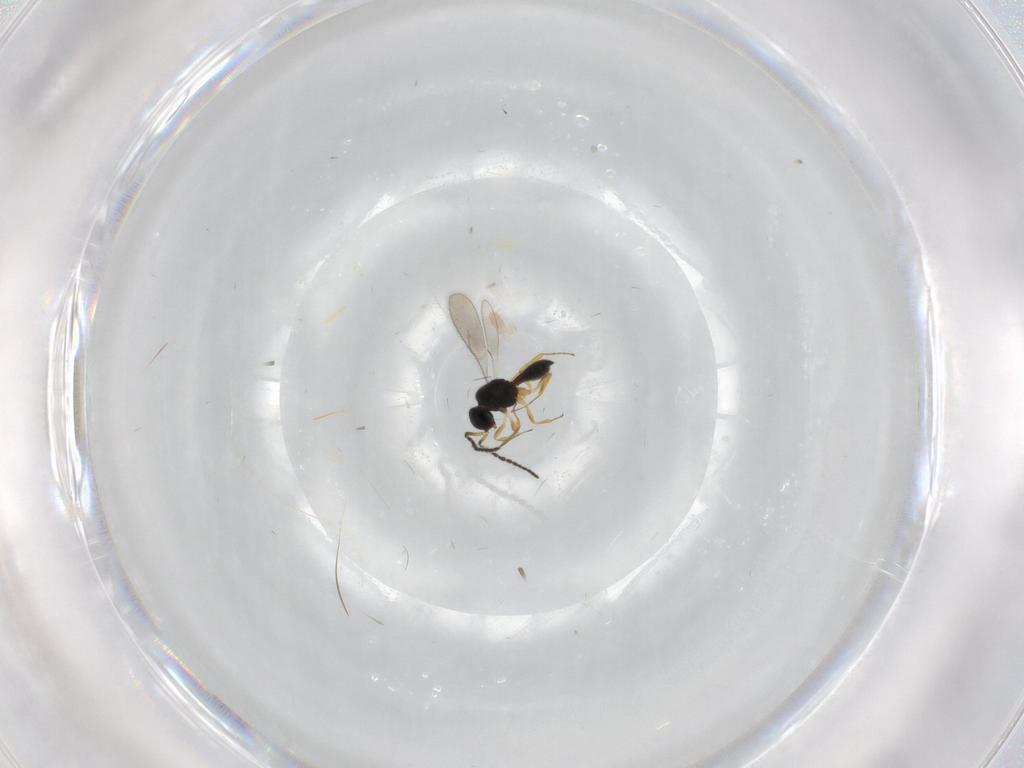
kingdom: Animalia
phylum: Arthropoda
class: Insecta
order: Hymenoptera
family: Scelionidae
